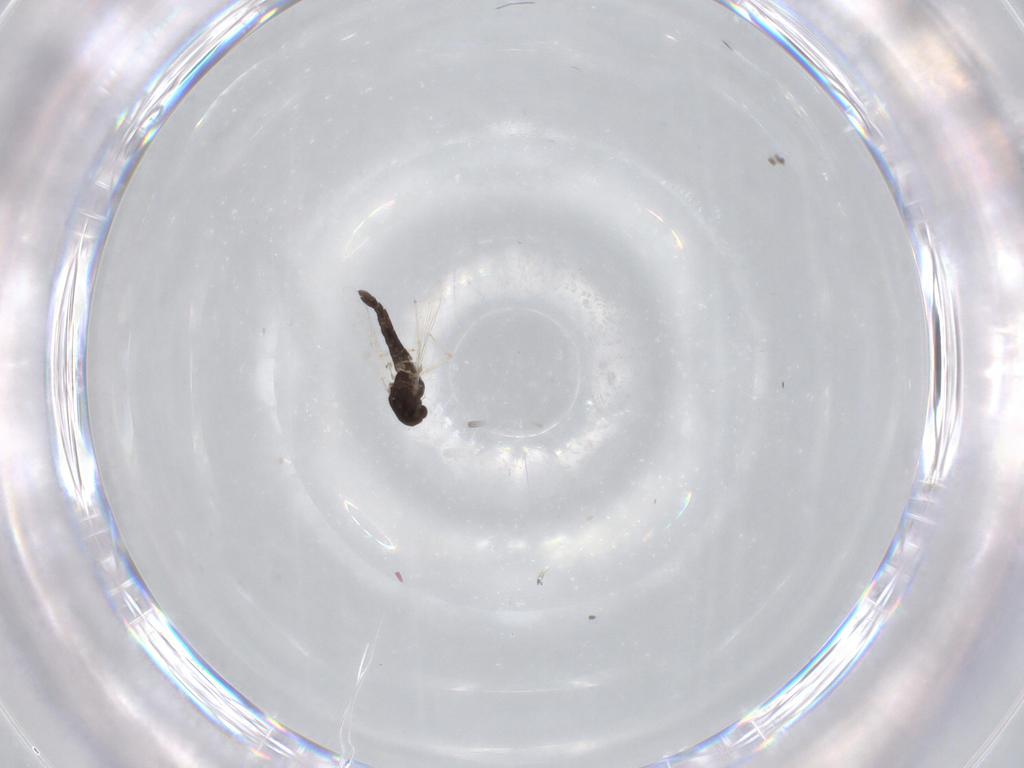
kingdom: Animalia
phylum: Arthropoda
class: Insecta
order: Diptera
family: Chironomidae
